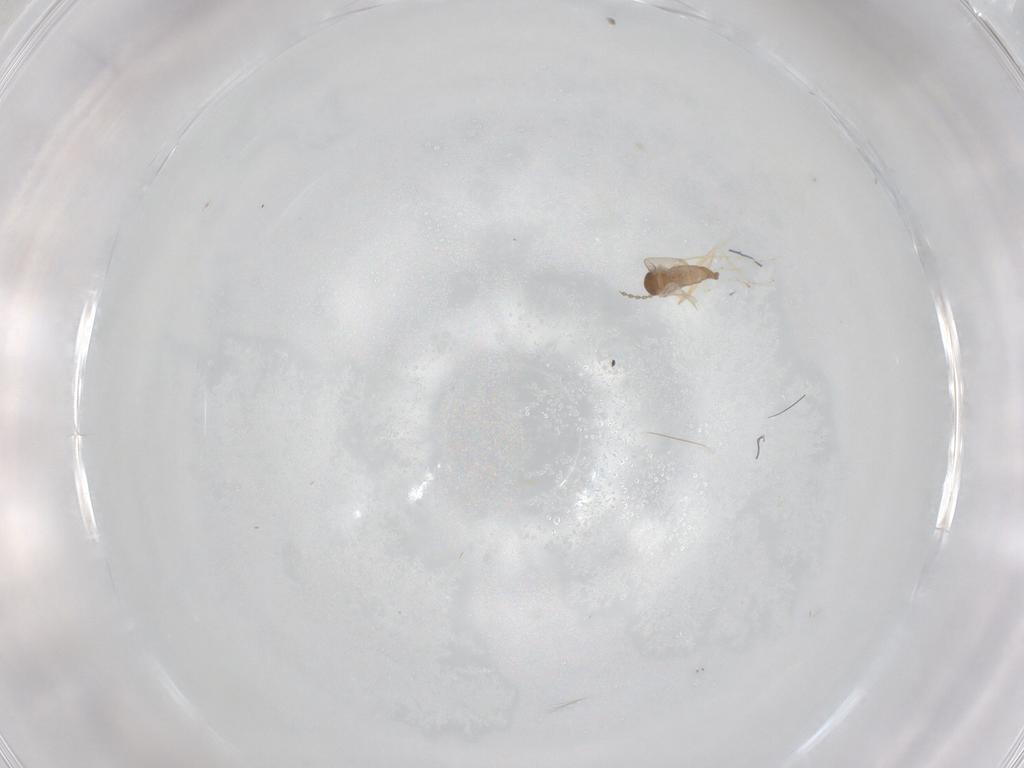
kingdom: Animalia
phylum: Arthropoda
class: Insecta
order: Diptera
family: Cecidomyiidae
